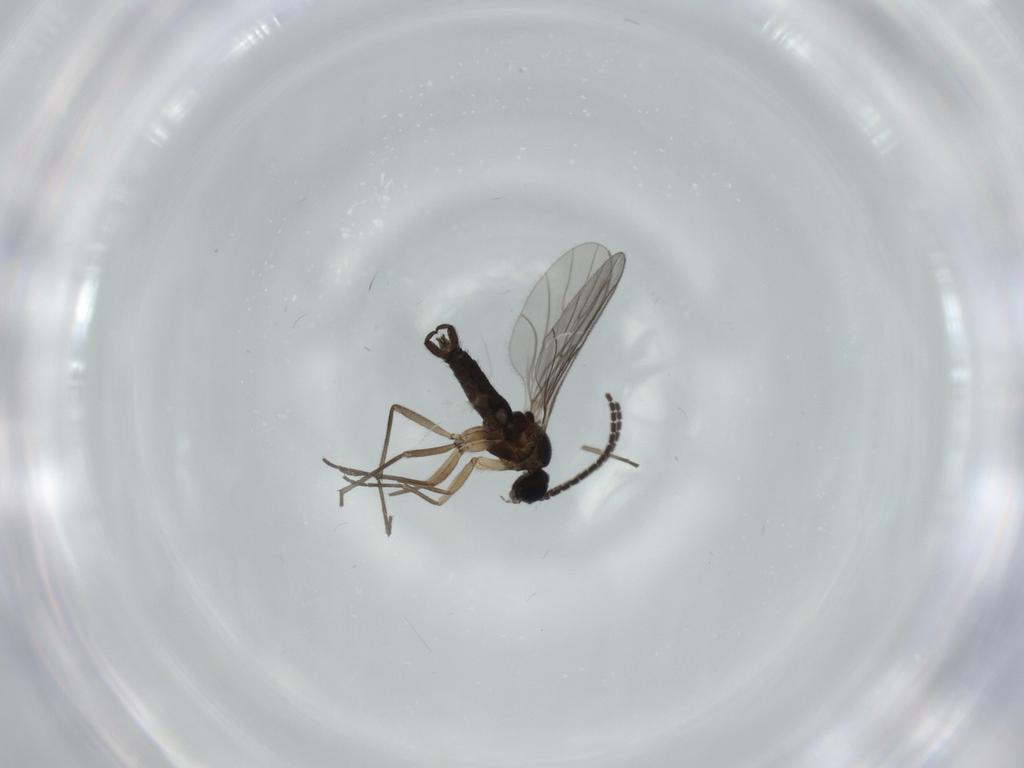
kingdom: Animalia
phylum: Arthropoda
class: Insecta
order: Diptera
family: Sciaridae
